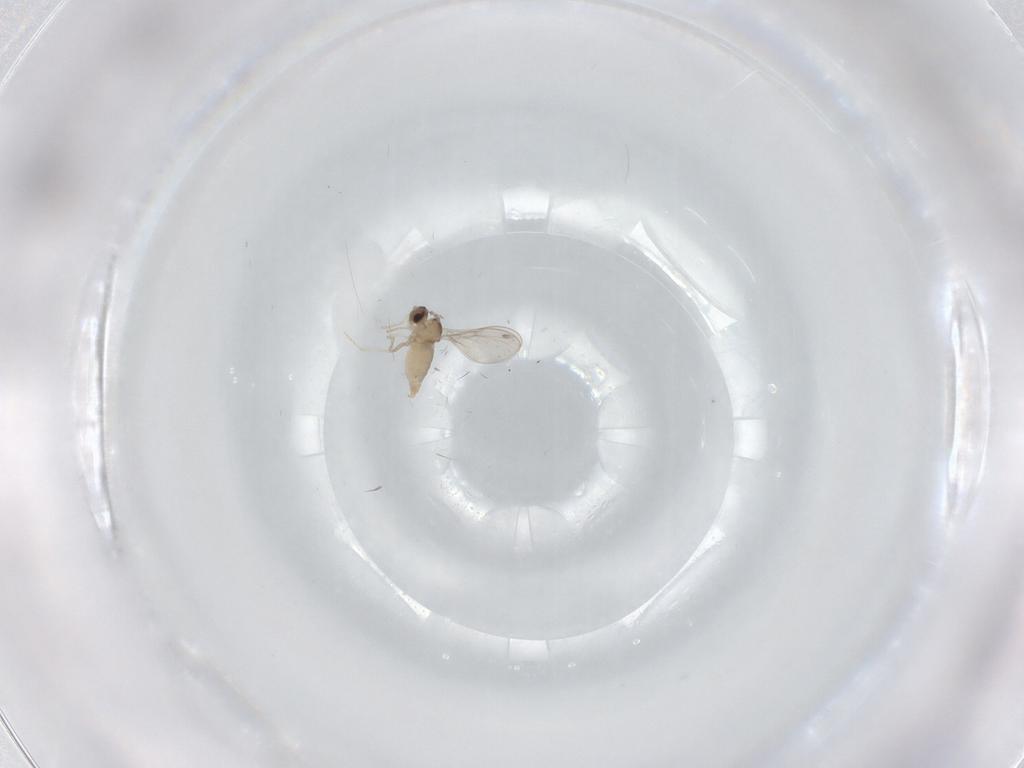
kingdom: Animalia
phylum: Arthropoda
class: Insecta
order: Diptera
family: Cecidomyiidae
